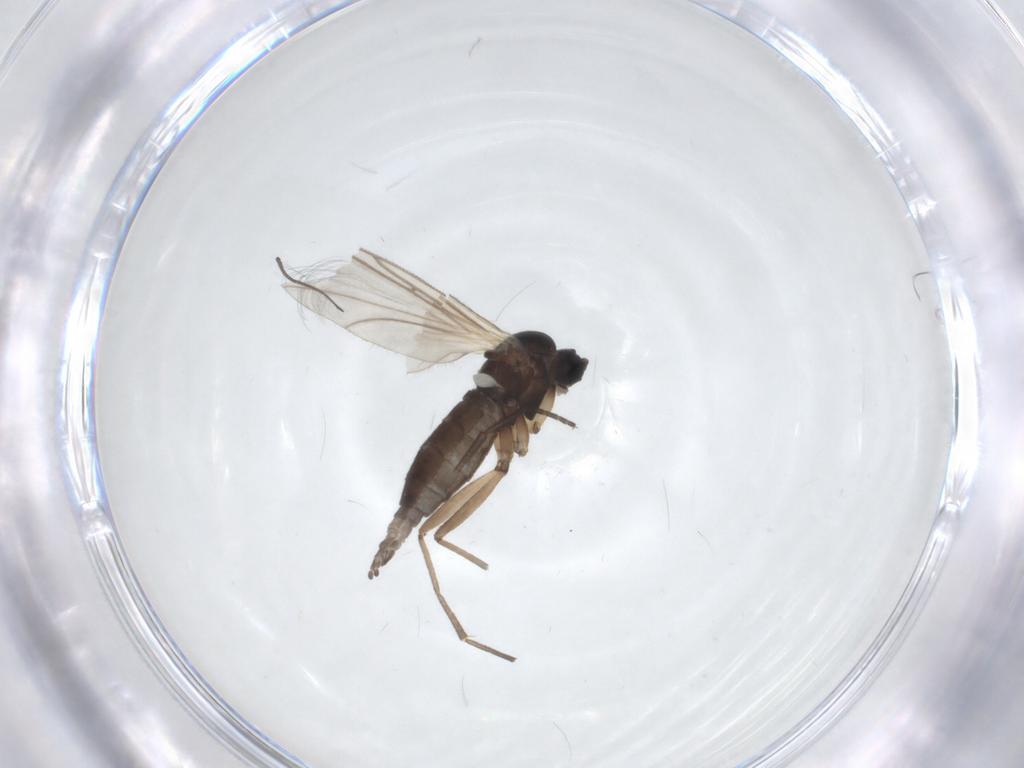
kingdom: Animalia
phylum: Arthropoda
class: Insecta
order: Diptera
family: Sciaridae
